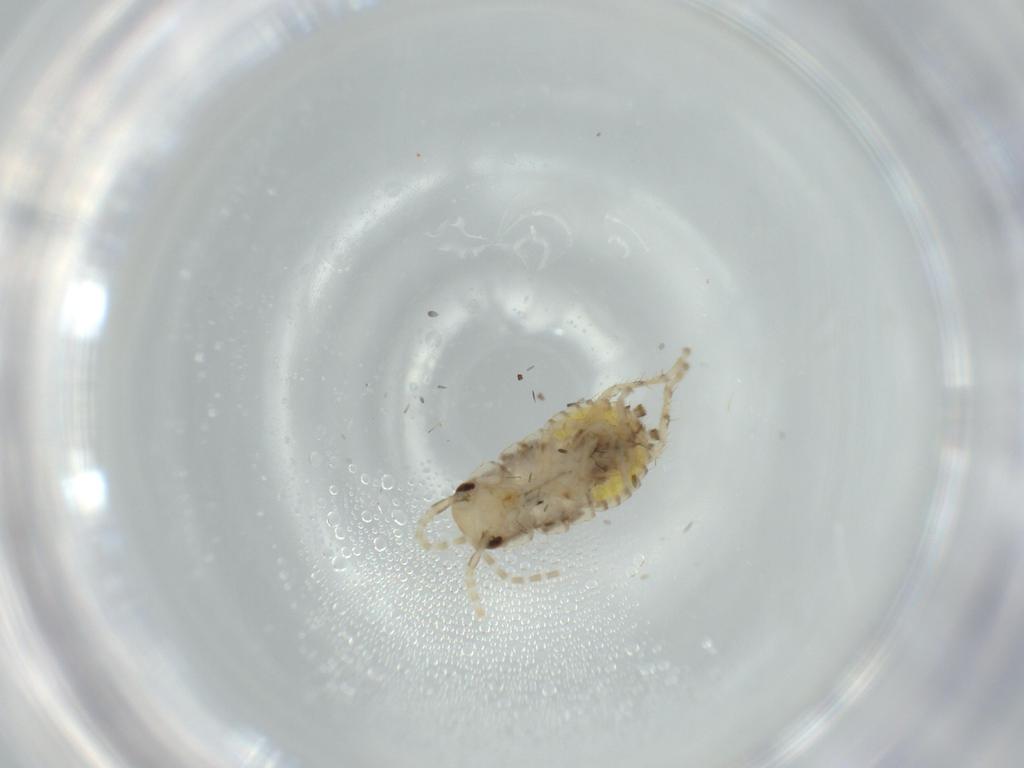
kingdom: Animalia
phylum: Arthropoda
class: Insecta
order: Blattodea
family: Ectobiidae
